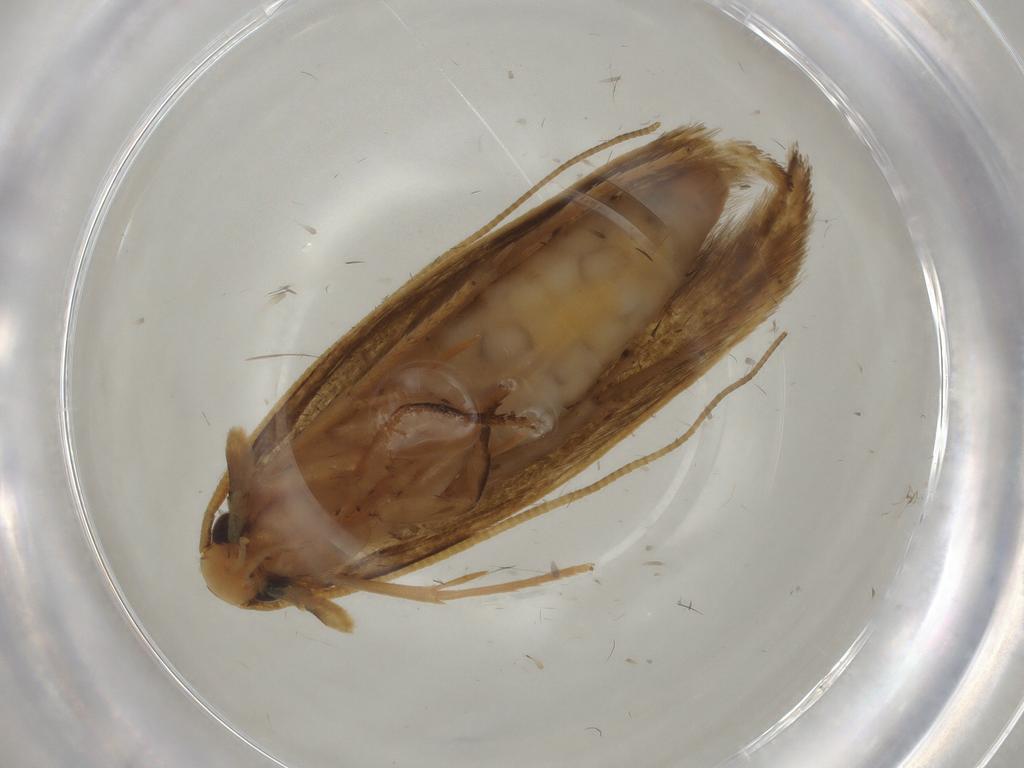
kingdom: Animalia
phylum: Arthropoda
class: Insecta
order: Lepidoptera
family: Tineidae
